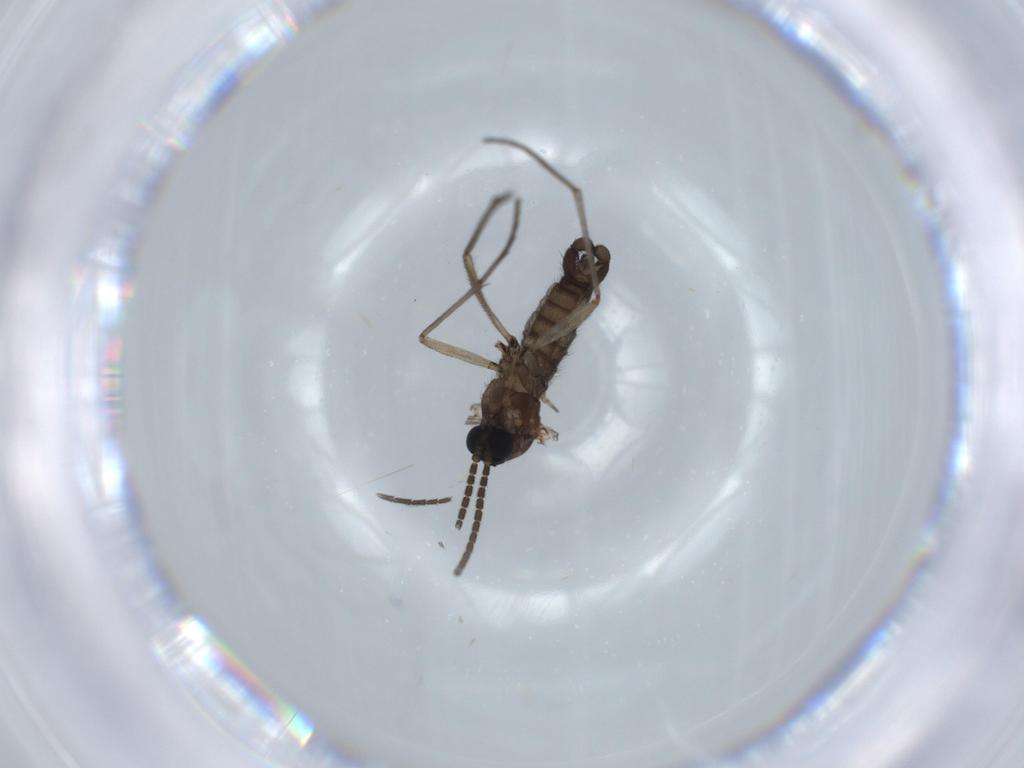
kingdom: Animalia
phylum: Arthropoda
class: Insecta
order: Diptera
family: Sciaridae
